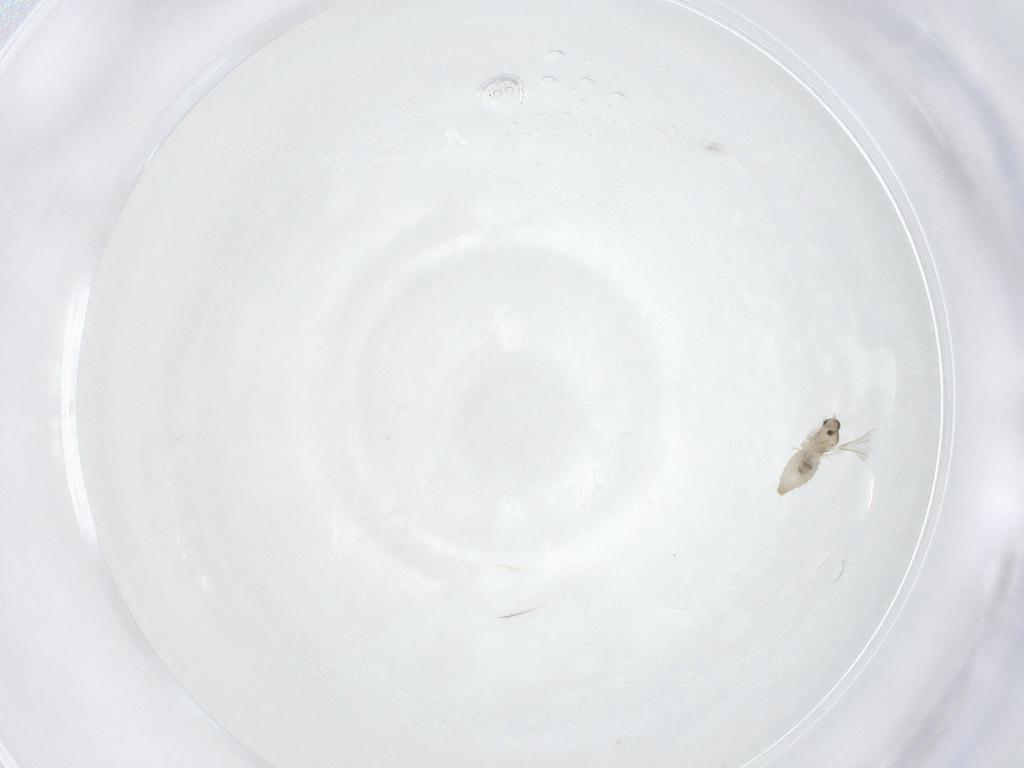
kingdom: Animalia
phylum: Arthropoda
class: Insecta
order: Diptera
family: Cecidomyiidae
